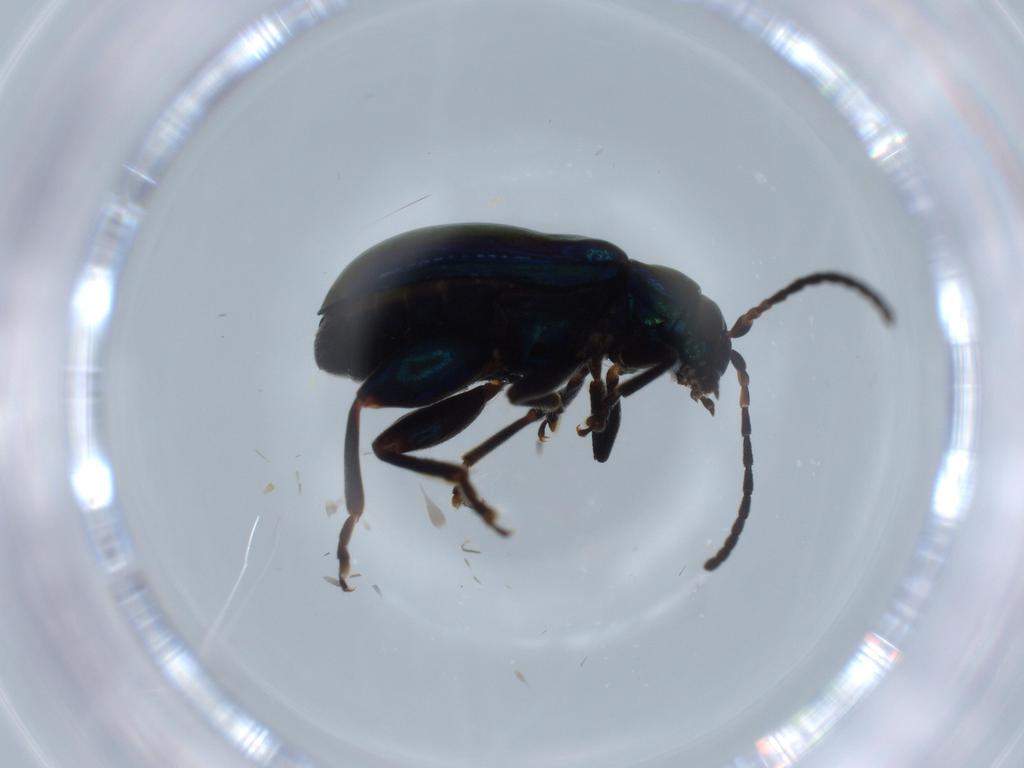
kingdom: Animalia
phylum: Arthropoda
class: Insecta
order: Coleoptera
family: Chrysomelidae
